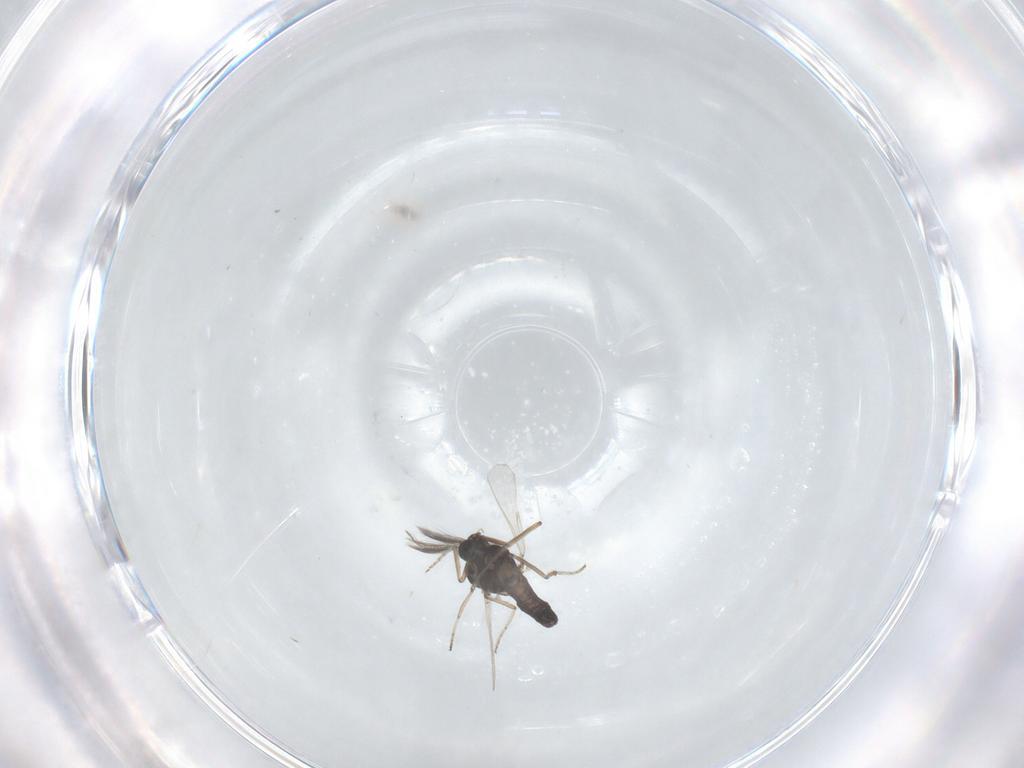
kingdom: Animalia
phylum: Arthropoda
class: Insecta
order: Diptera
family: Ceratopogonidae
